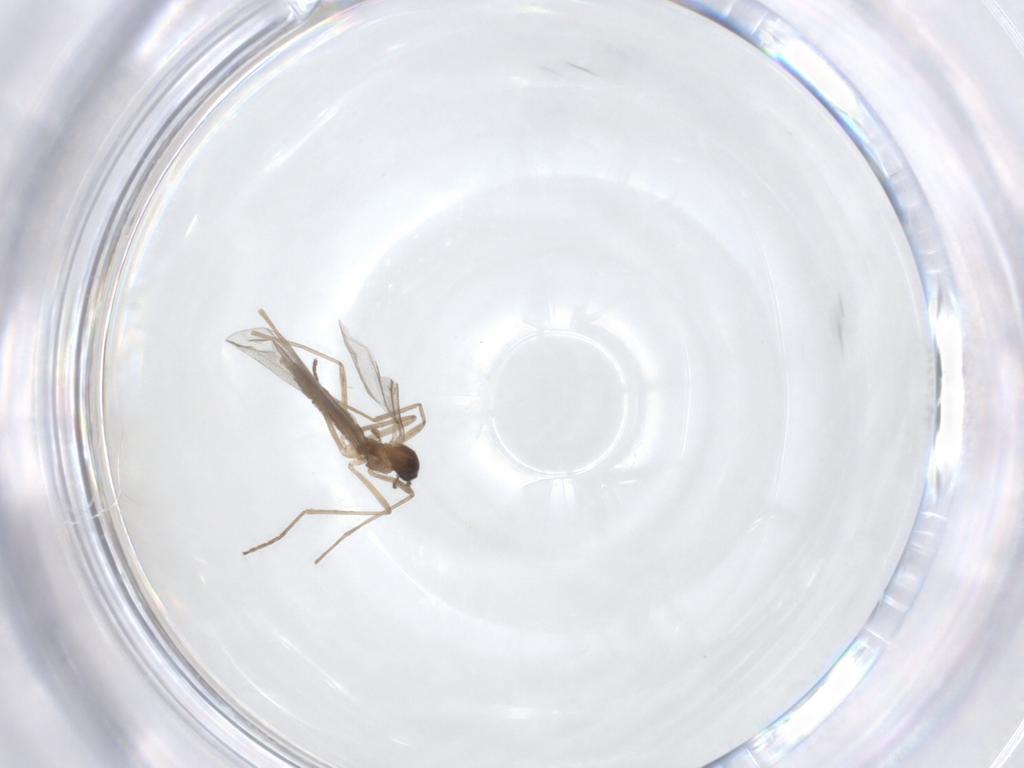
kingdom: Animalia
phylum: Arthropoda
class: Insecta
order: Diptera
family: Cecidomyiidae
